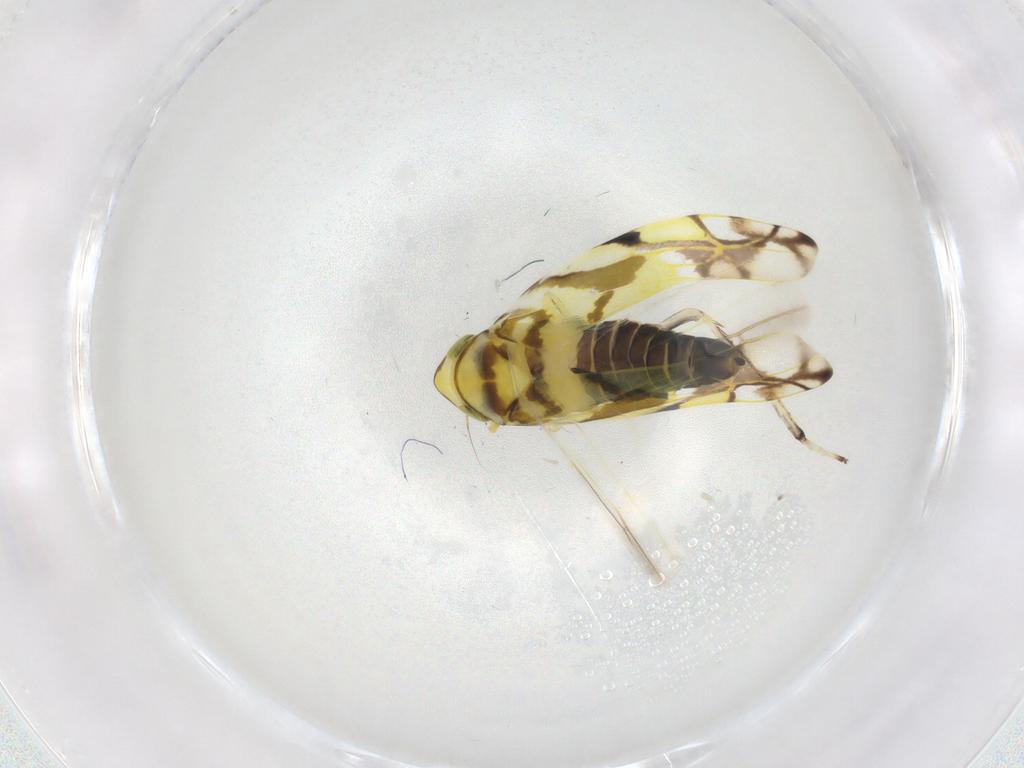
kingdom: Animalia
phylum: Arthropoda
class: Insecta
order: Hemiptera
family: Cicadellidae
